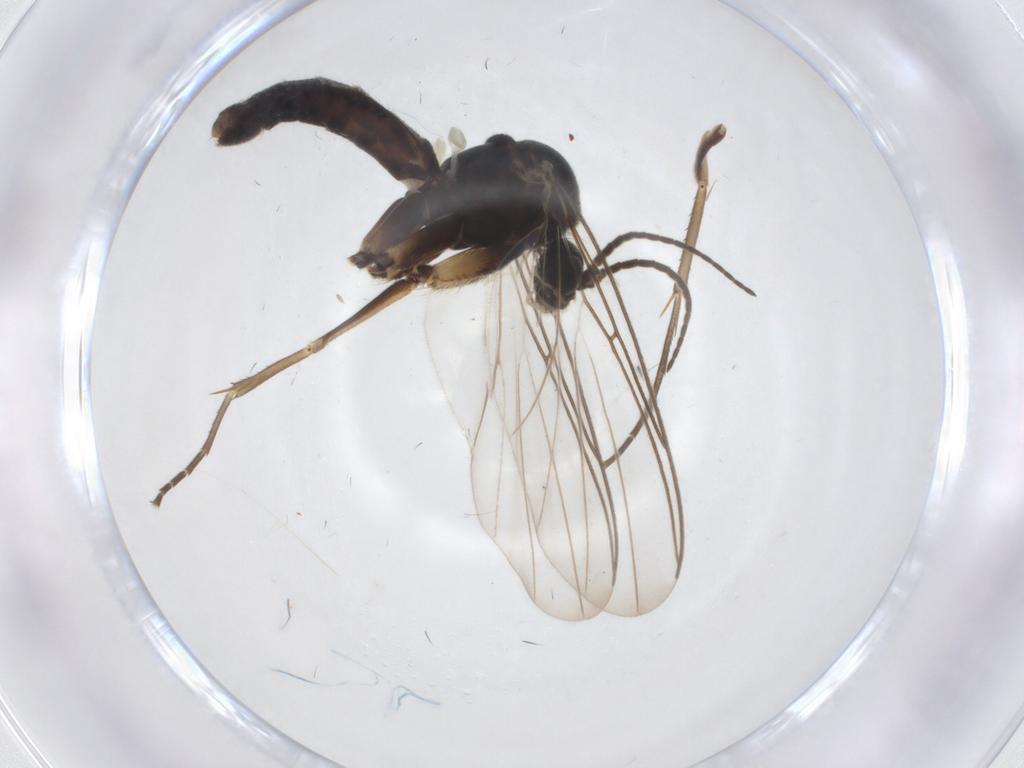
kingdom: Animalia
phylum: Arthropoda
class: Insecta
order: Diptera
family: Mycetophilidae
